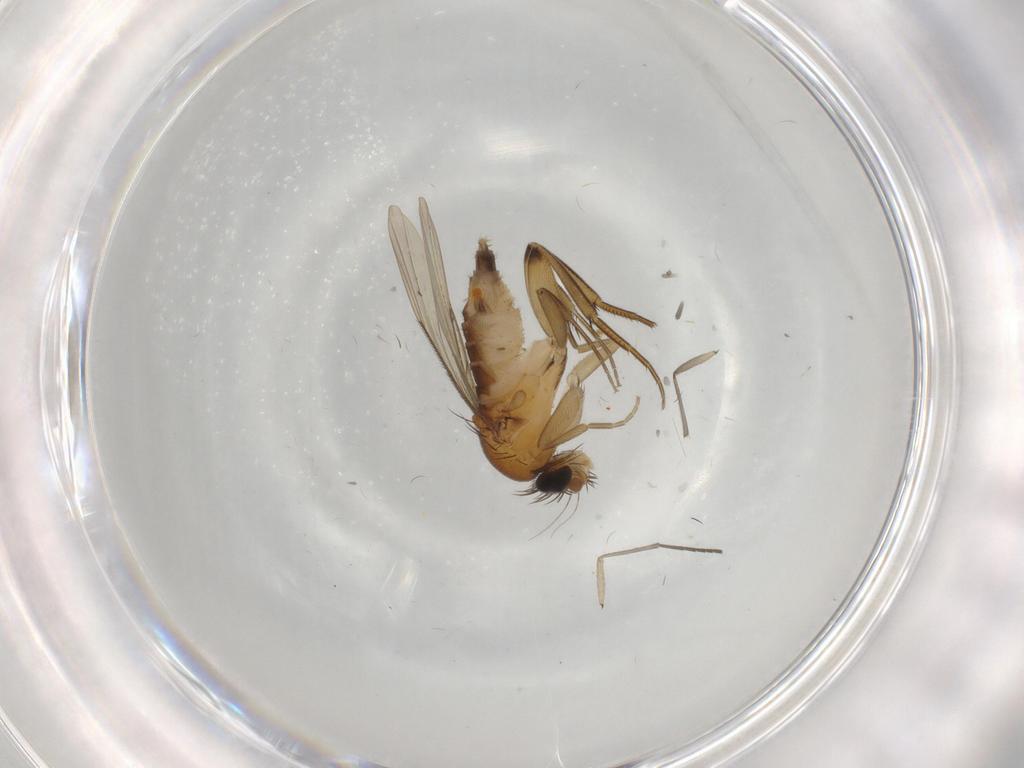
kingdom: Animalia
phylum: Arthropoda
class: Insecta
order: Diptera
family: Phoridae
